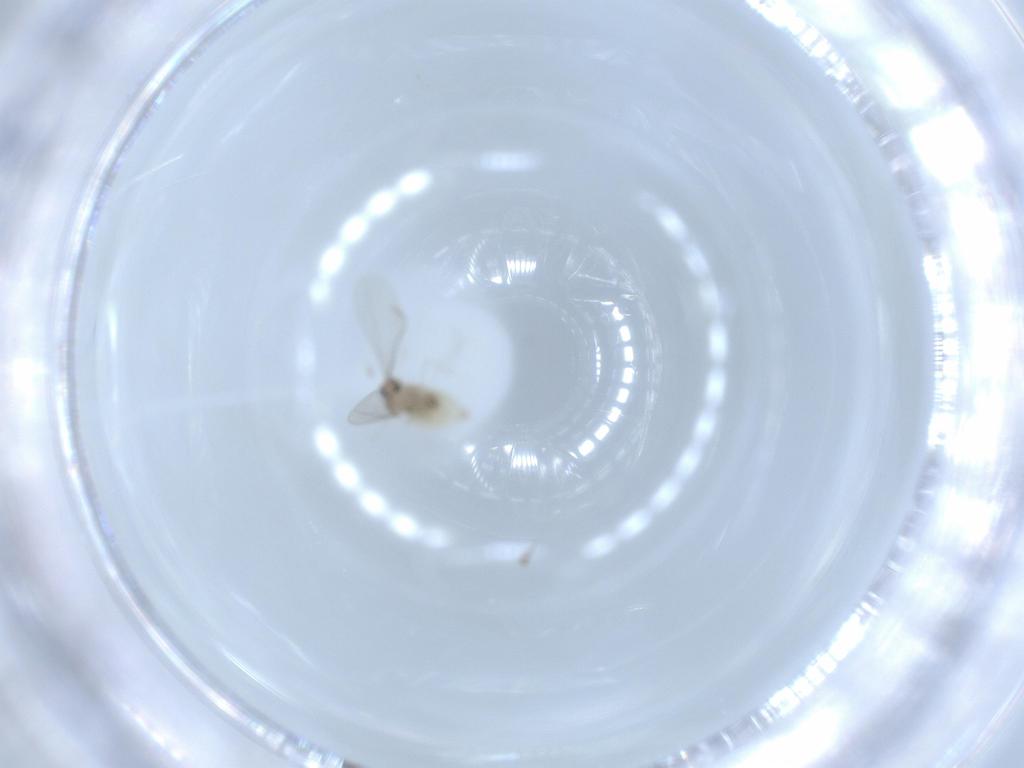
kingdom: Animalia
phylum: Arthropoda
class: Insecta
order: Diptera
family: Cecidomyiidae
